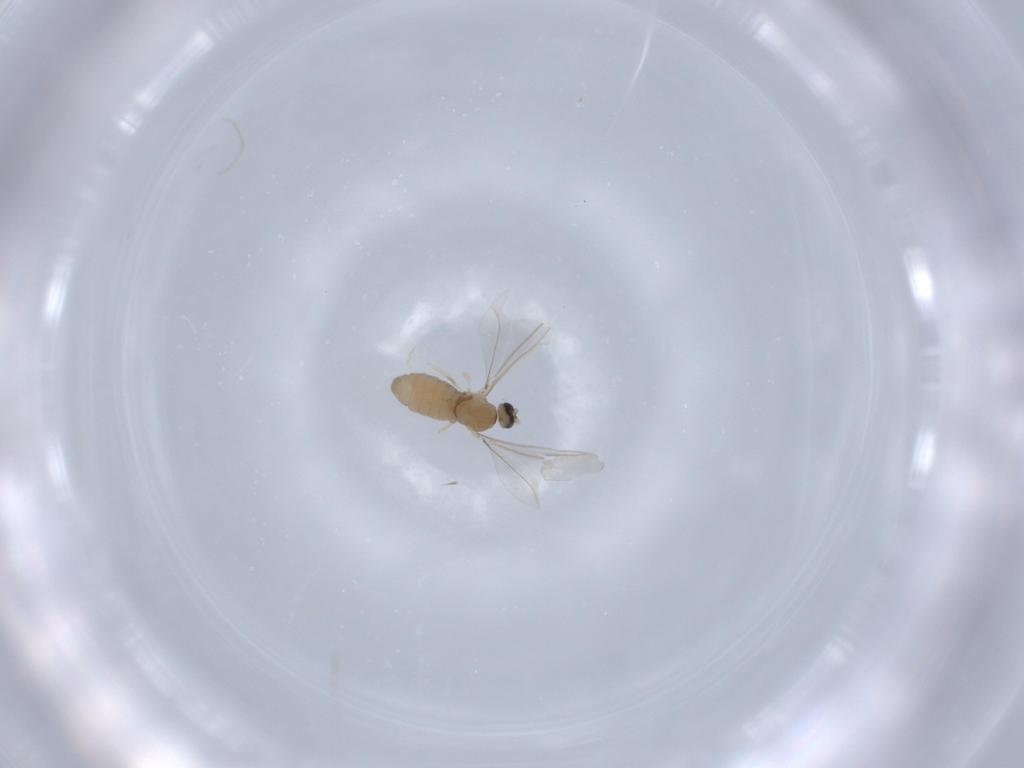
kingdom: Animalia
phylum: Arthropoda
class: Insecta
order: Diptera
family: Cecidomyiidae
